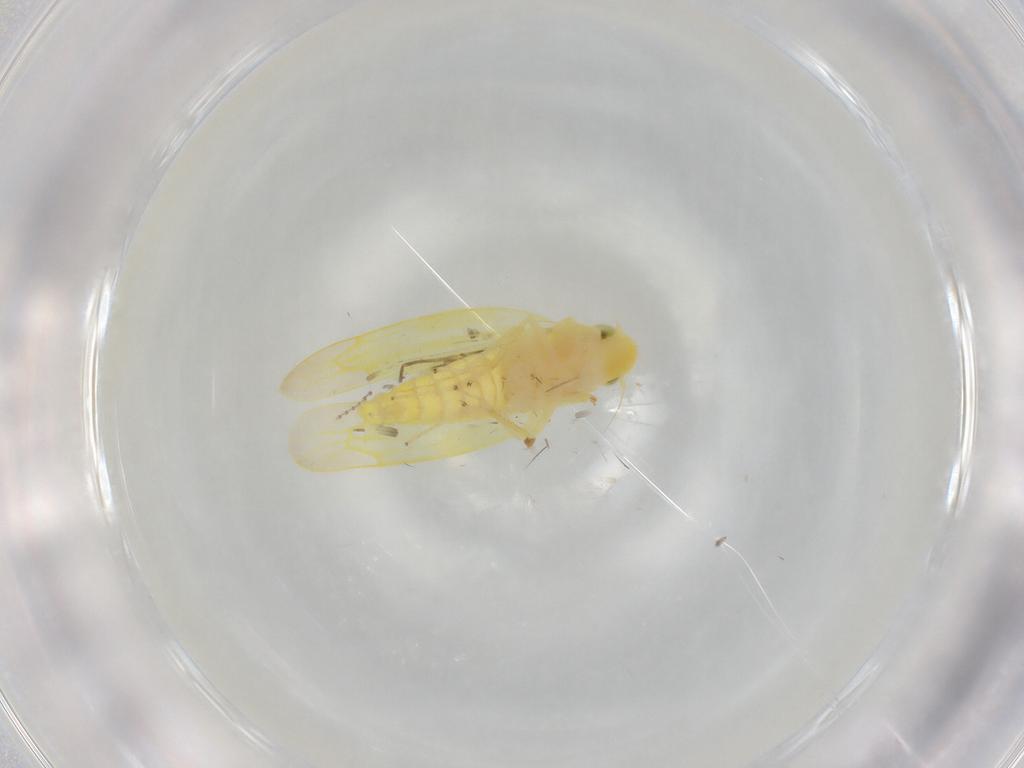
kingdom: Animalia
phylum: Arthropoda
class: Insecta
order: Hemiptera
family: Cicadellidae
